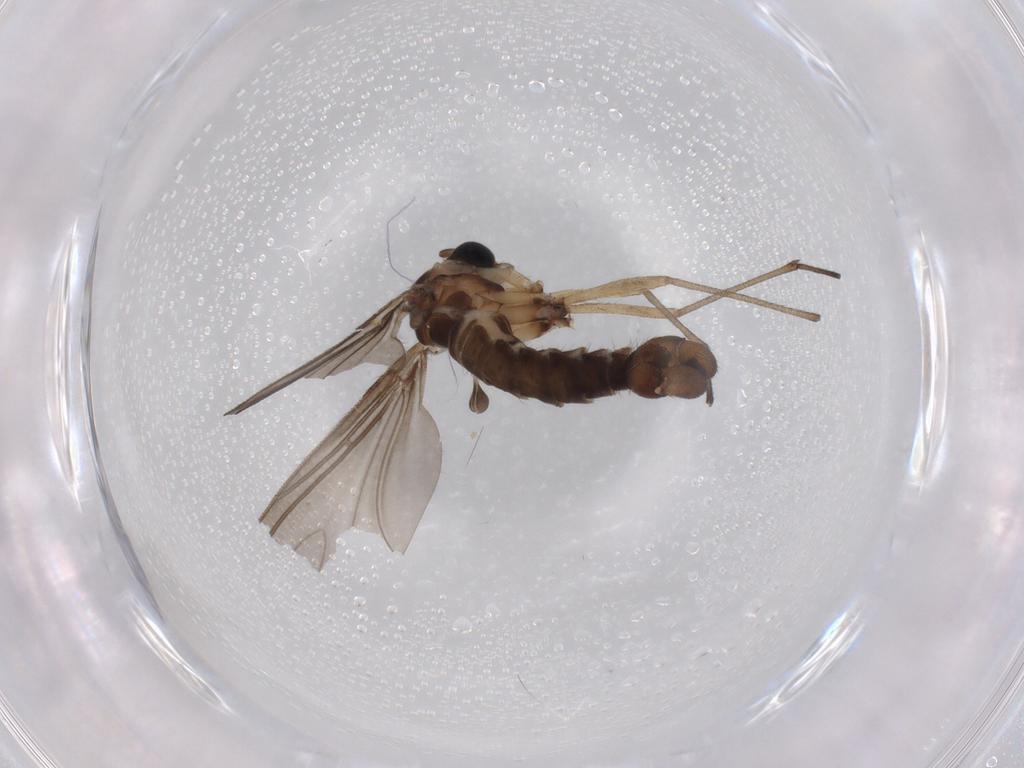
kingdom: Animalia
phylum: Arthropoda
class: Insecta
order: Diptera
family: Sciaridae
